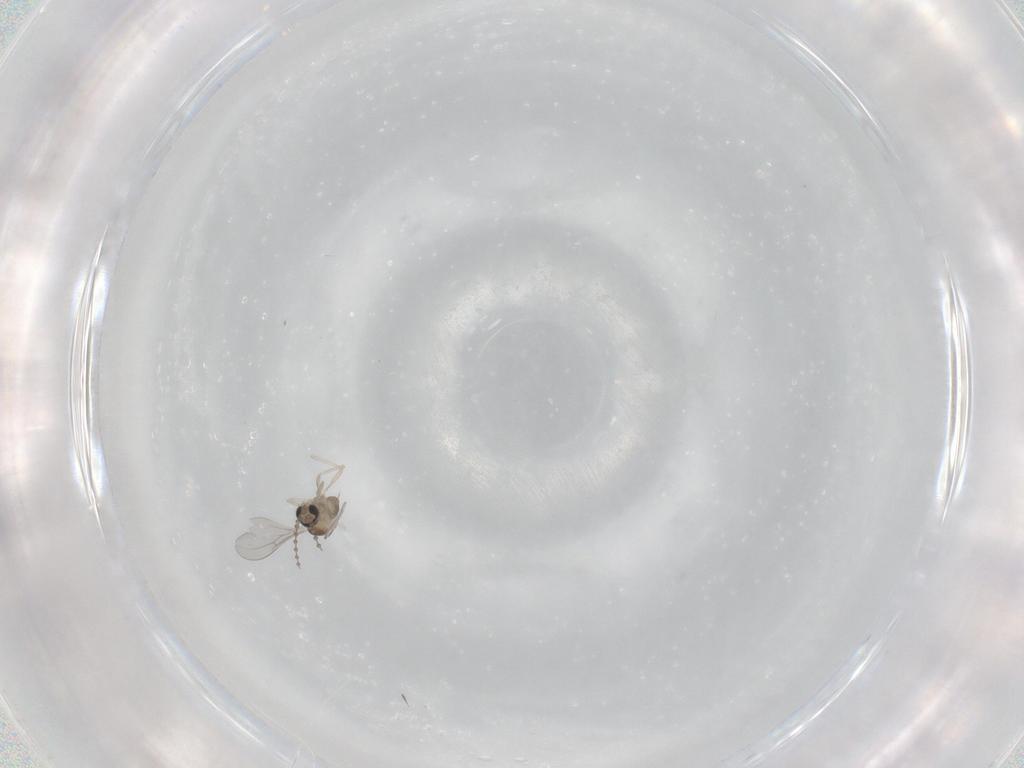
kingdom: Animalia
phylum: Arthropoda
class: Insecta
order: Diptera
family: Cecidomyiidae
